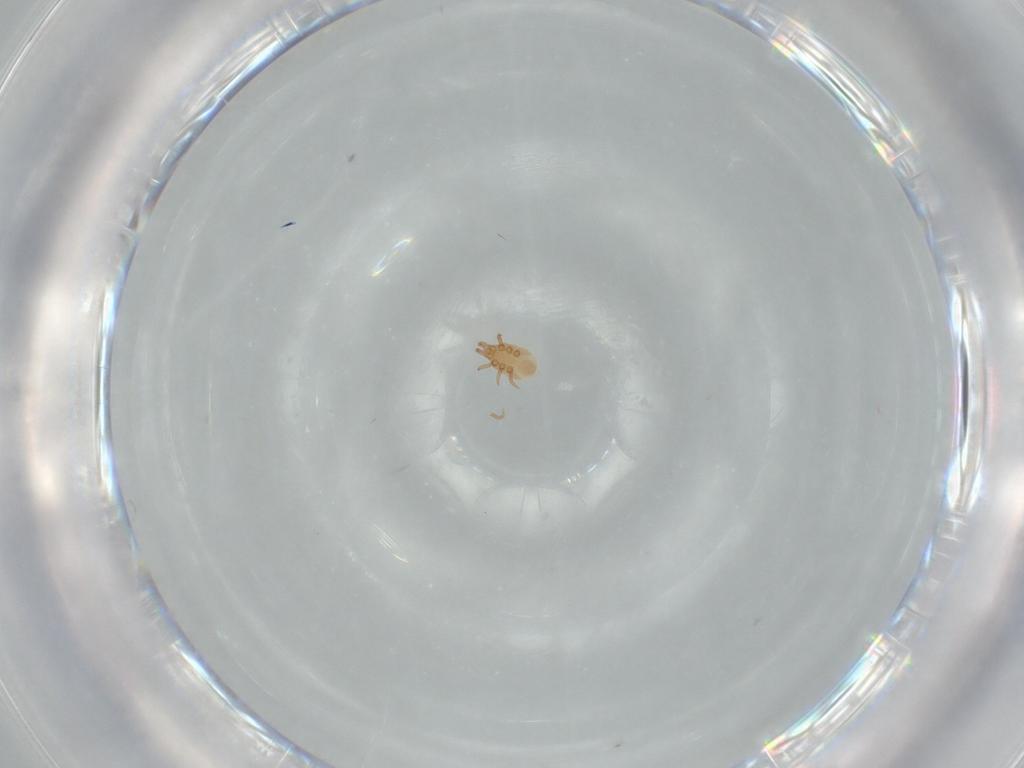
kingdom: Animalia
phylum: Arthropoda
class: Arachnida
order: Mesostigmata
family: Dinychidae
